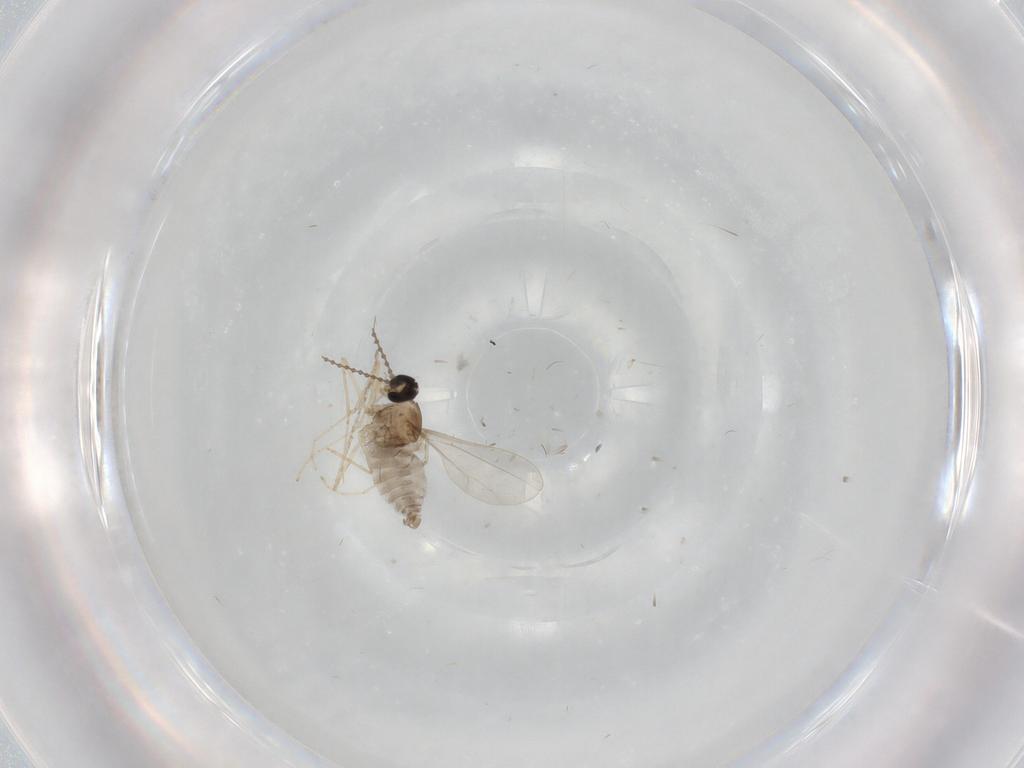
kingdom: Animalia
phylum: Arthropoda
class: Insecta
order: Diptera
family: Cecidomyiidae
